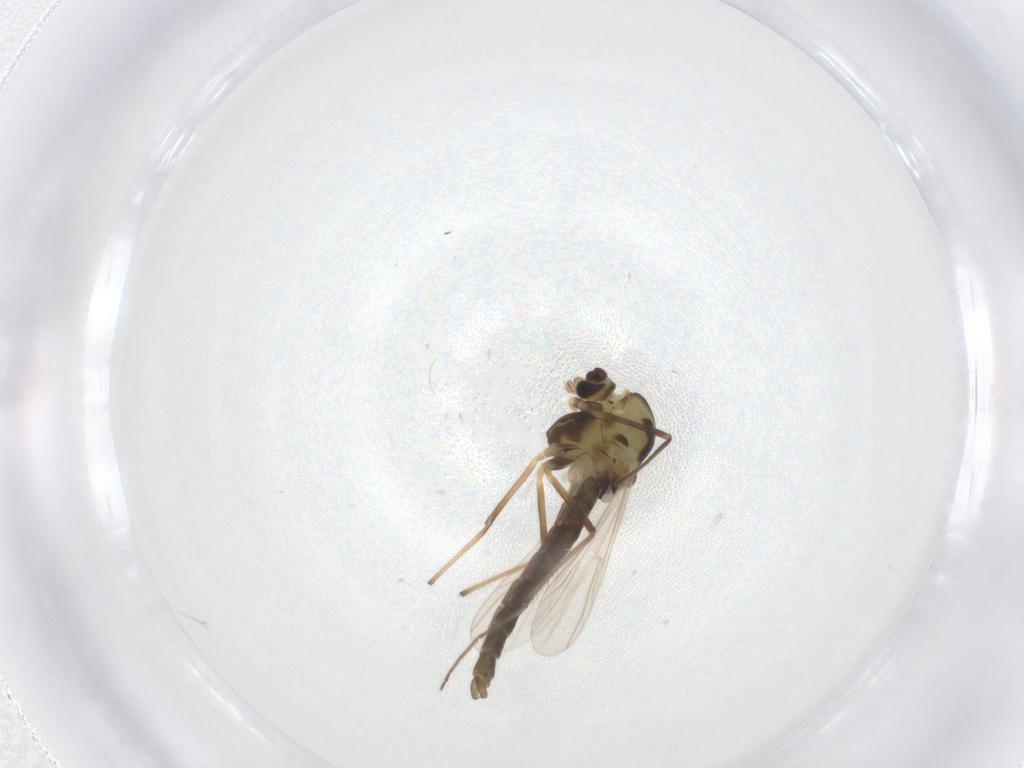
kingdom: Animalia
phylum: Arthropoda
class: Insecta
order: Diptera
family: Chironomidae
